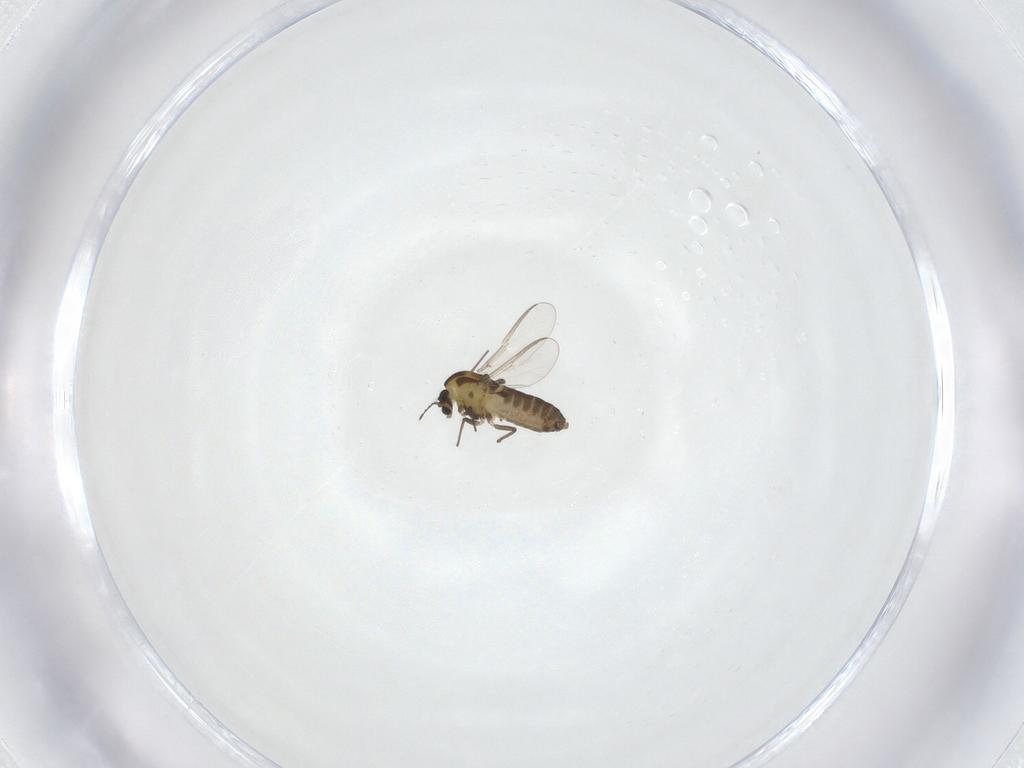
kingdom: Animalia
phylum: Arthropoda
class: Insecta
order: Diptera
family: Chironomidae
